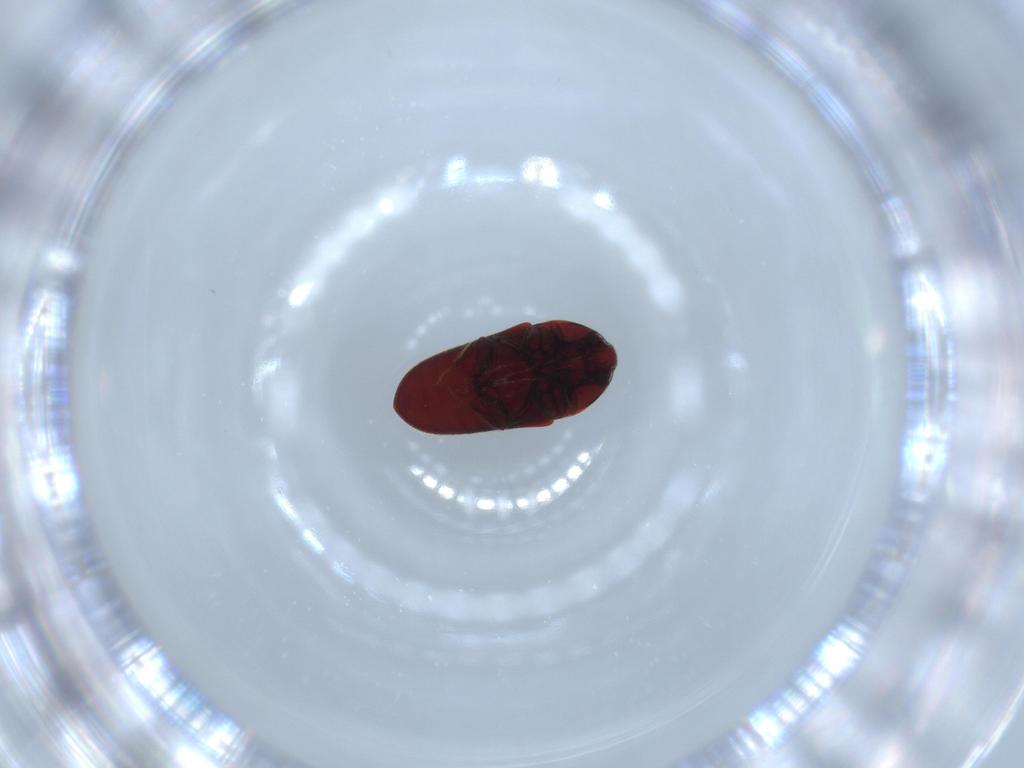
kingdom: Animalia
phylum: Arthropoda
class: Insecta
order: Coleoptera
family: Throscidae
